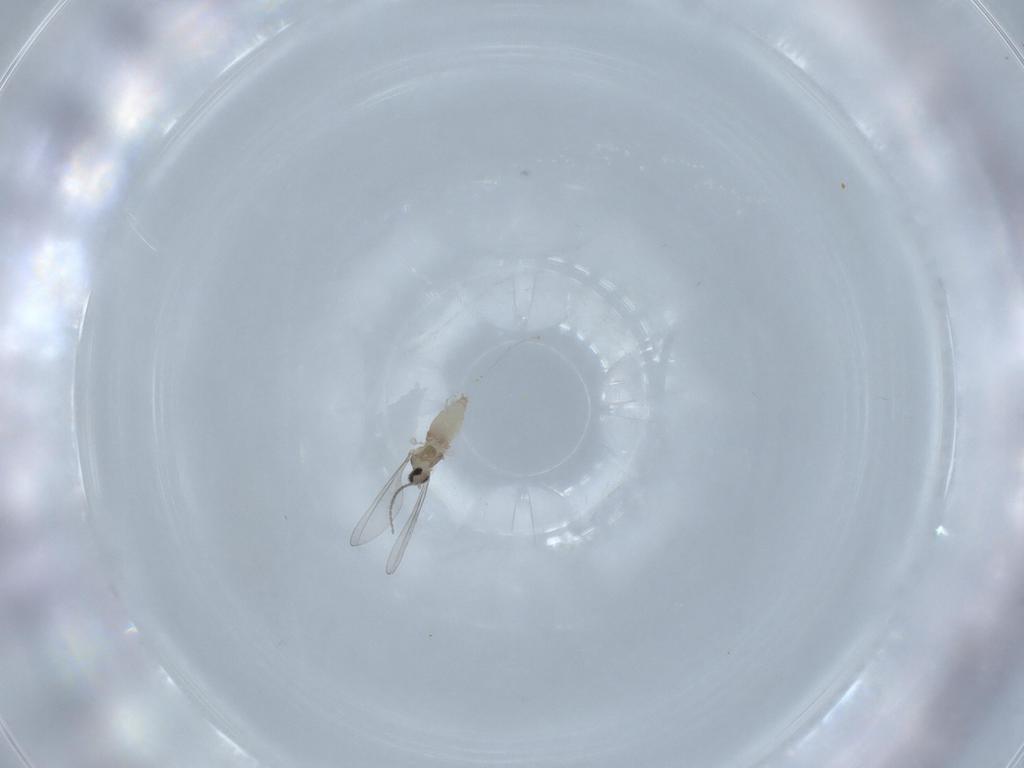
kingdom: Animalia
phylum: Arthropoda
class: Insecta
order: Diptera
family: Cecidomyiidae
